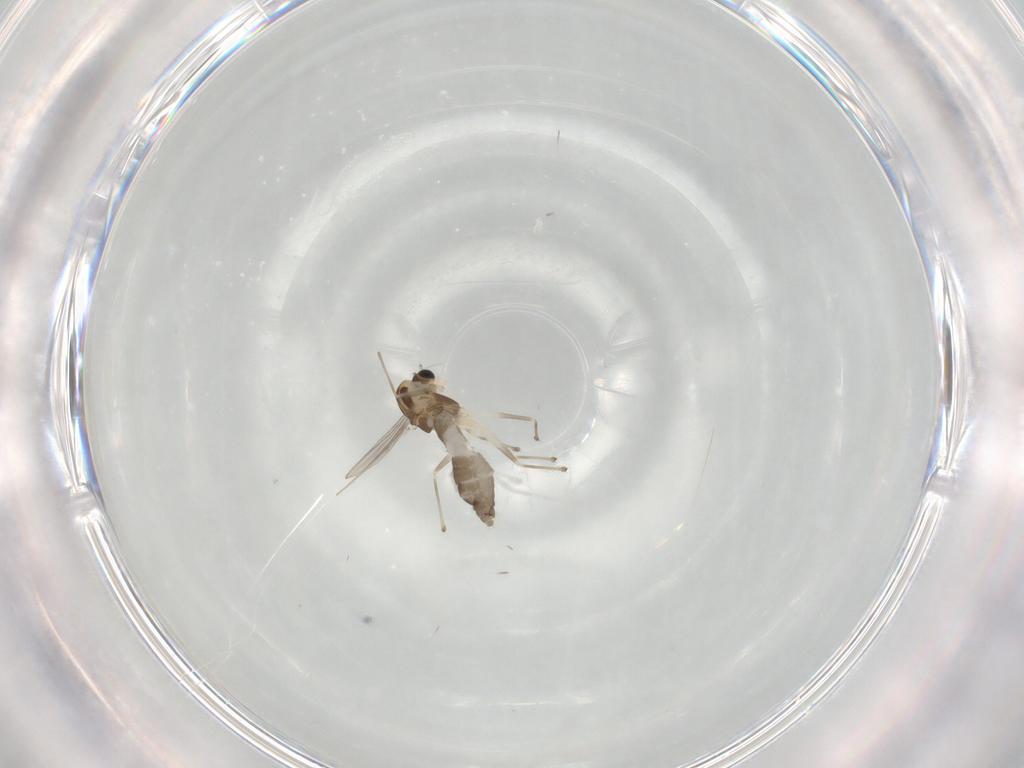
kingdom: Animalia
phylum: Arthropoda
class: Insecta
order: Diptera
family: Chironomidae
